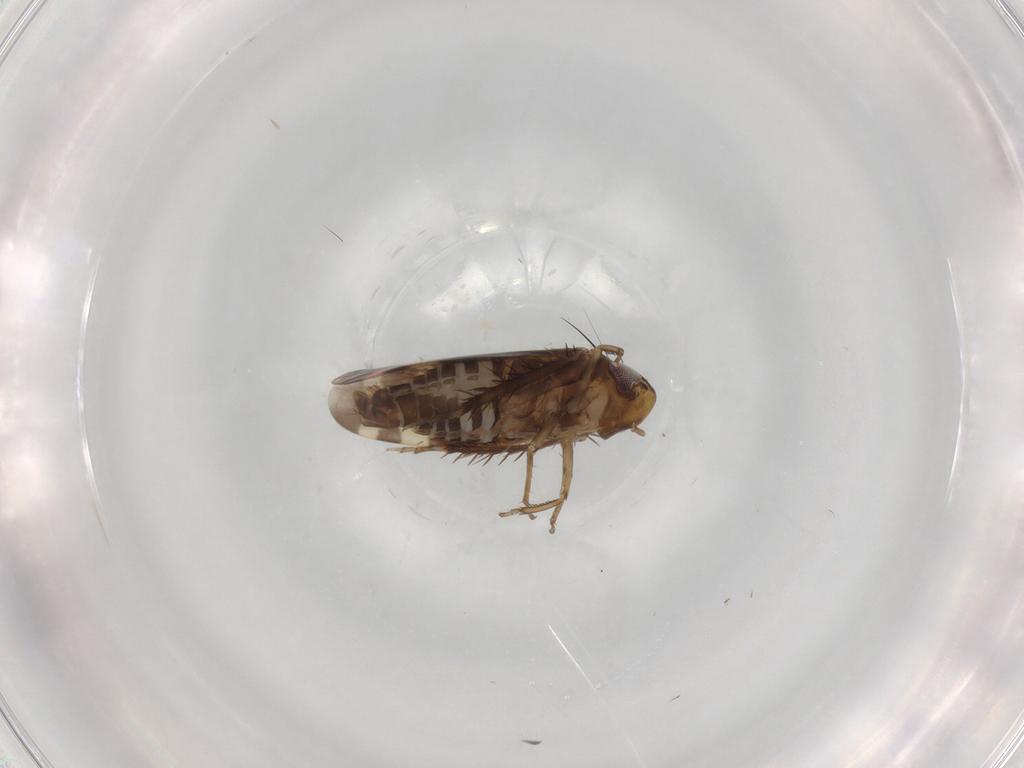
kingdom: Animalia
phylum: Arthropoda
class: Insecta
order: Hemiptera
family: Cicadellidae
